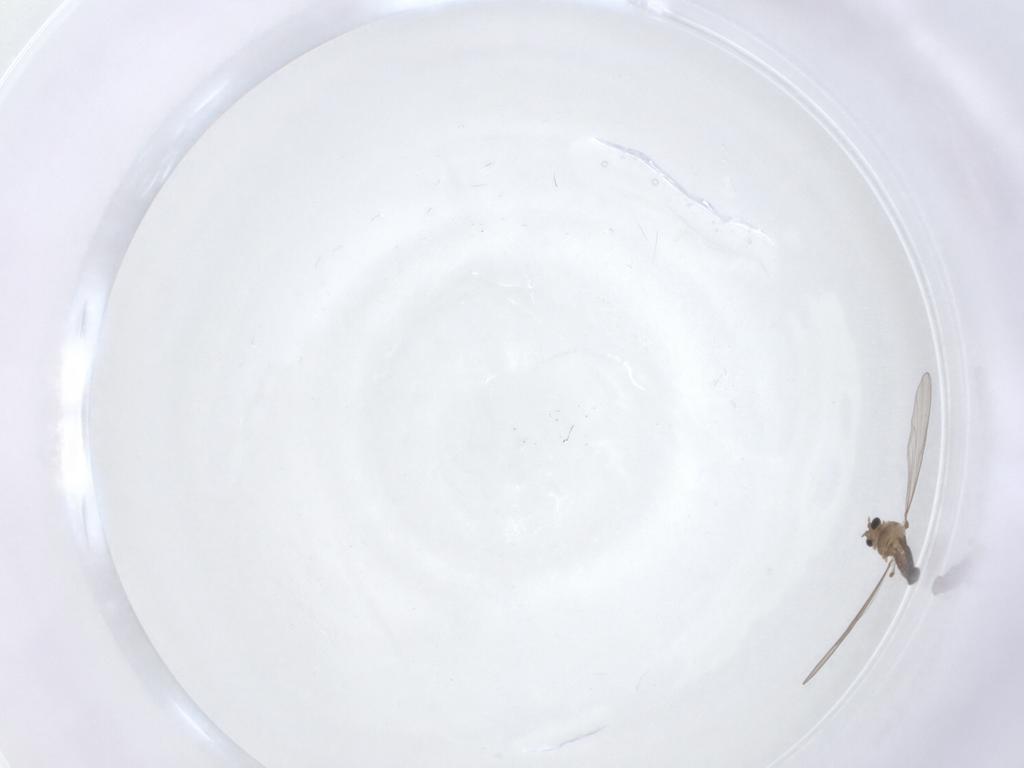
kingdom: Animalia
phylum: Arthropoda
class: Insecta
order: Diptera
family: Chironomidae
